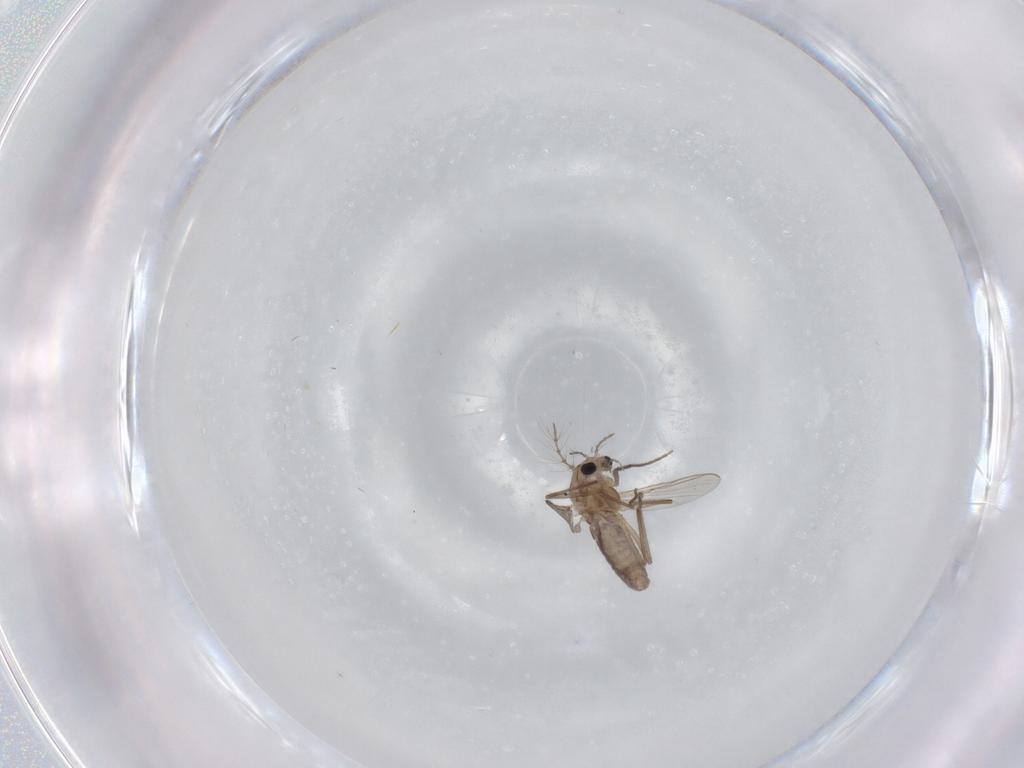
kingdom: Animalia
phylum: Arthropoda
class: Insecta
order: Diptera
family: Chironomidae
